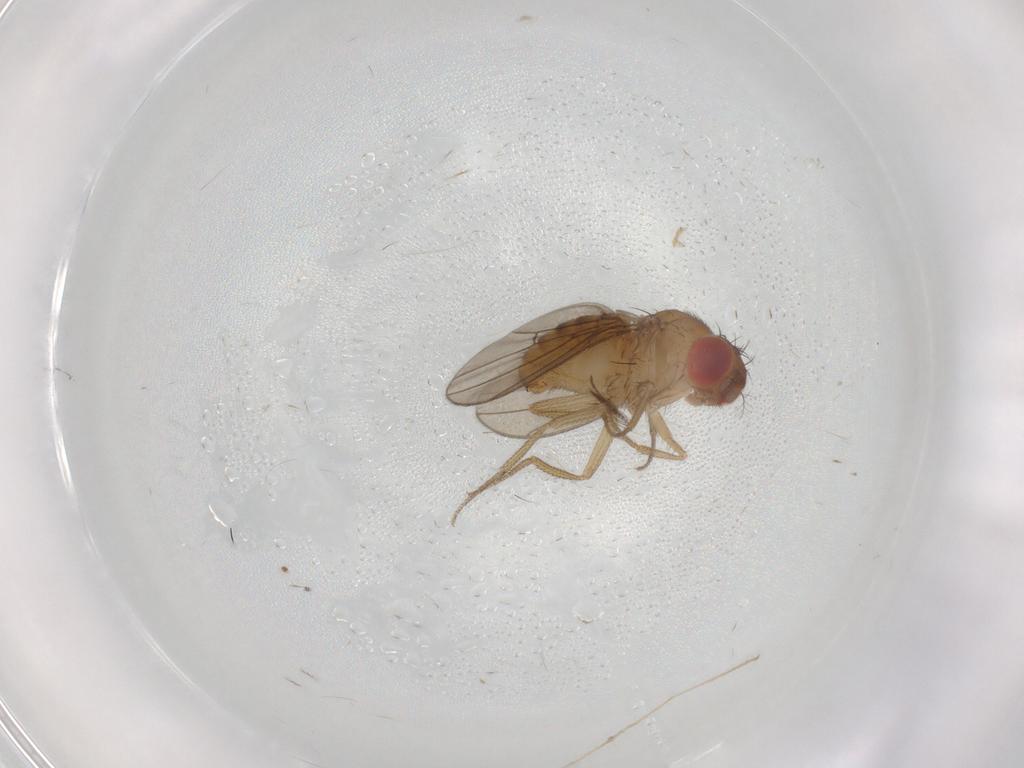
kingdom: Animalia
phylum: Arthropoda
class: Insecta
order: Diptera
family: Drosophilidae
